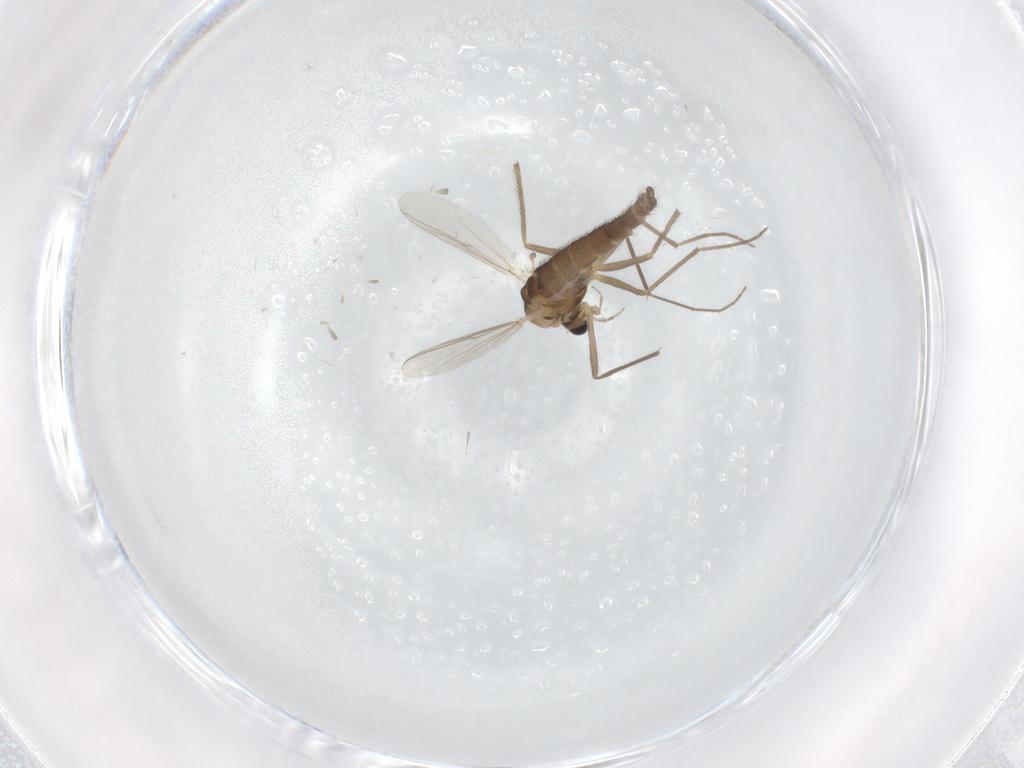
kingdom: Animalia
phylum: Arthropoda
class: Insecta
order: Diptera
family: Chironomidae
